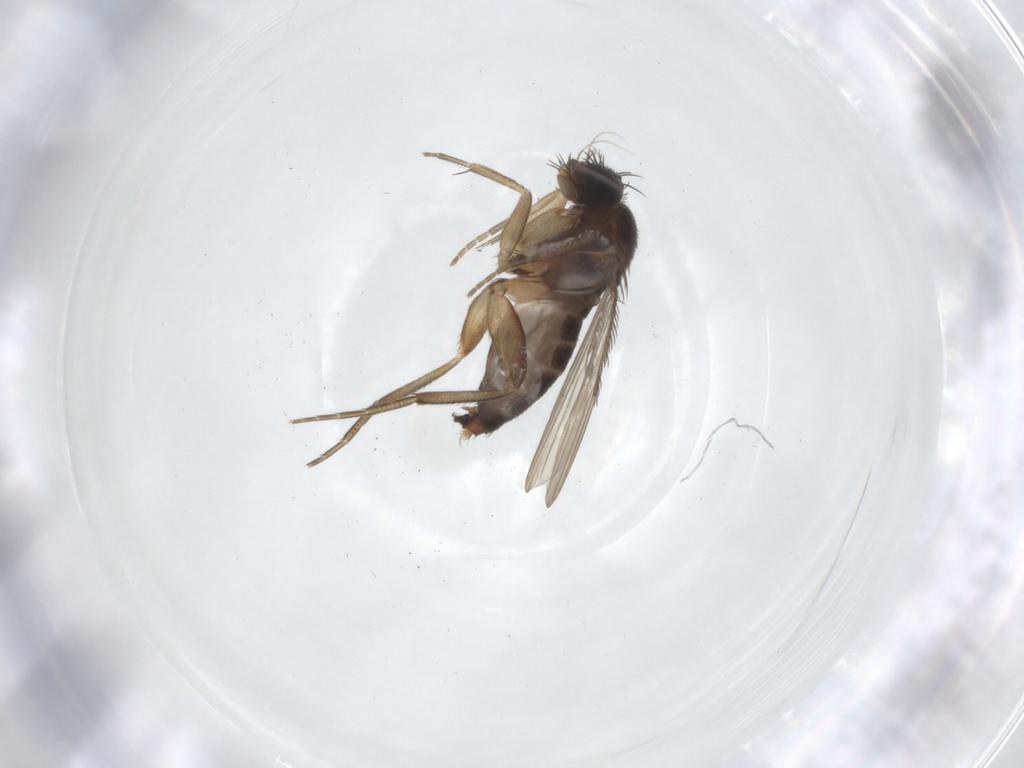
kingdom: Animalia
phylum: Arthropoda
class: Insecta
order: Diptera
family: Phoridae
